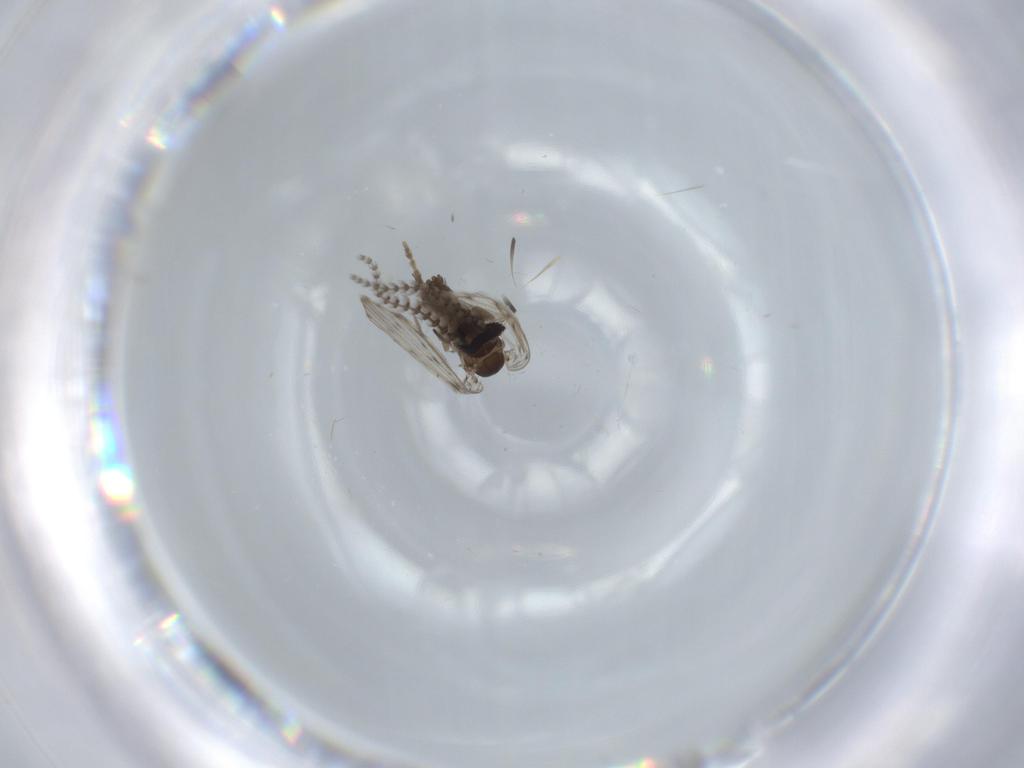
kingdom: Animalia
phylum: Arthropoda
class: Insecta
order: Diptera
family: Psychodidae
